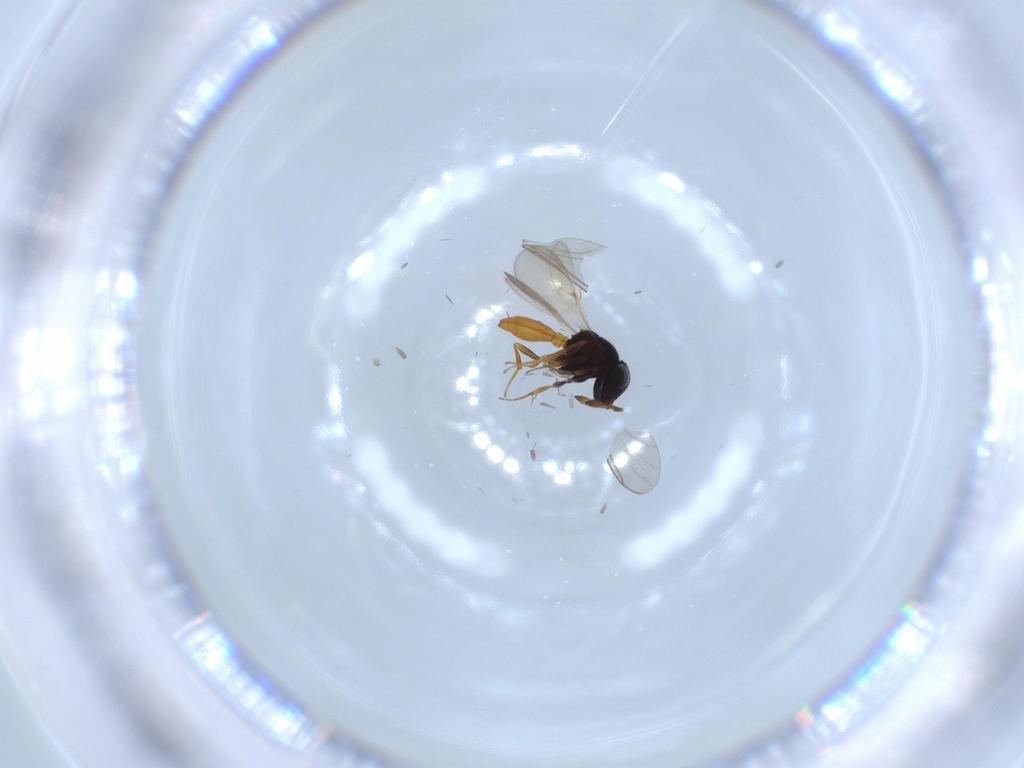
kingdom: Animalia
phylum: Arthropoda
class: Insecta
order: Hymenoptera
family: Scelionidae
